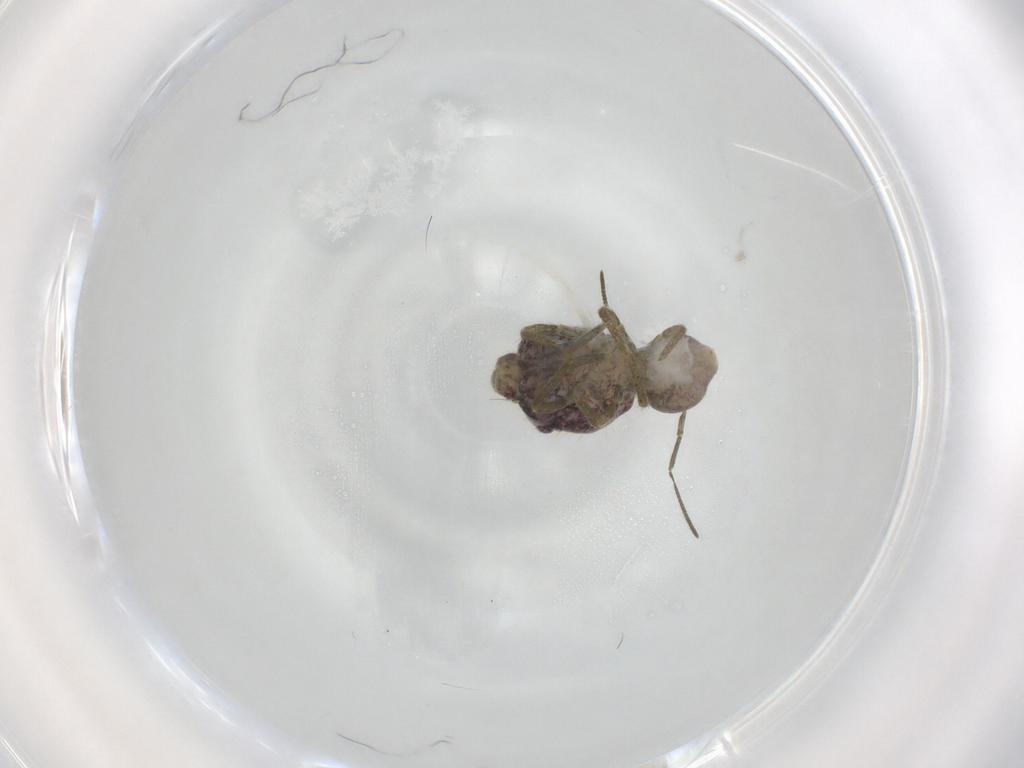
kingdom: Animalia
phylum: Arthropoda
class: Collembola
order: Symphypleona
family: Sminthuridae
